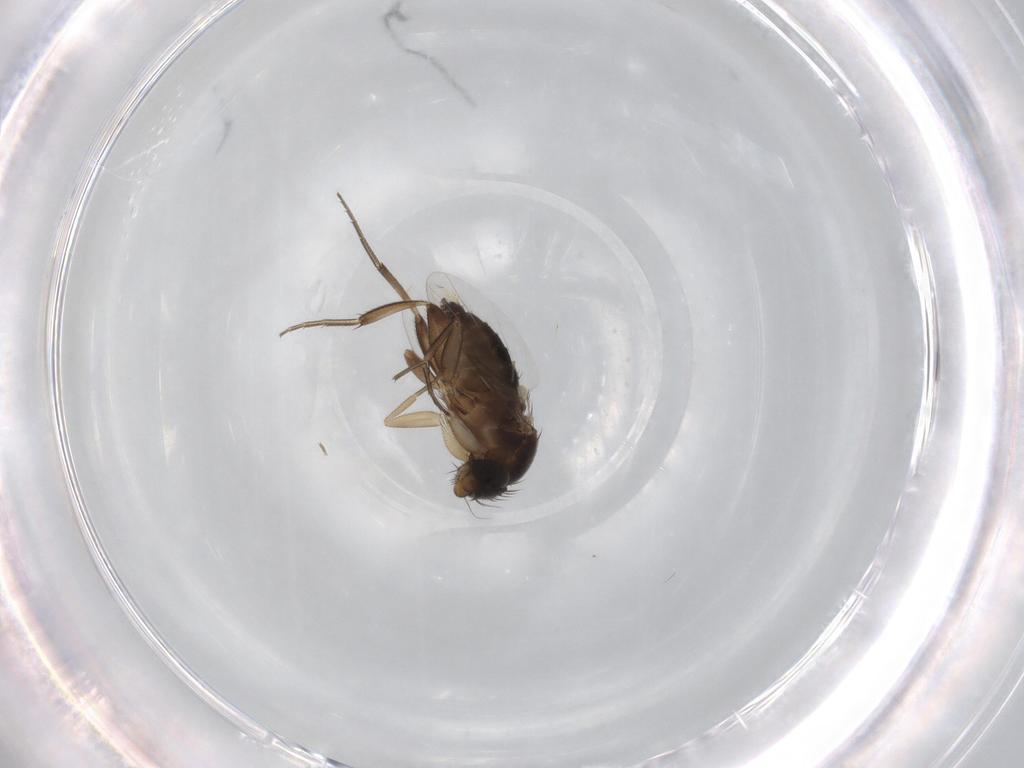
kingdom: Animalia
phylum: Arthropoda
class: Insecta
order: Diptera
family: Phoridae
